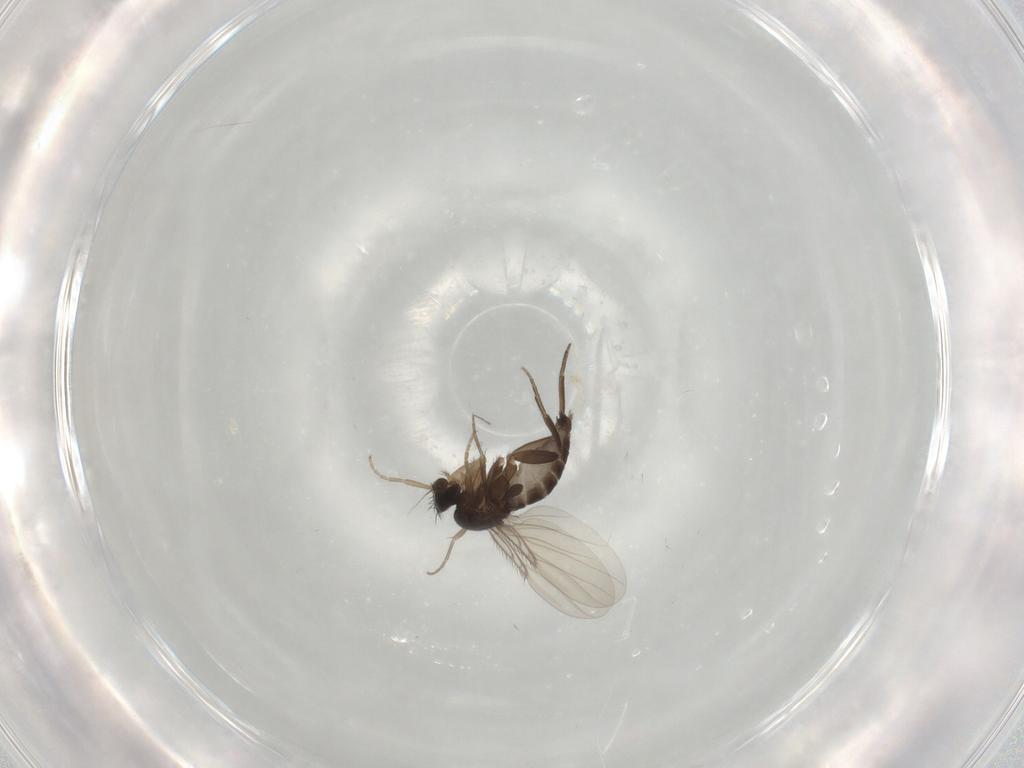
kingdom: Animalia
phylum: Arthropoda
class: Insecta
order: Diptera
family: Phoridae
